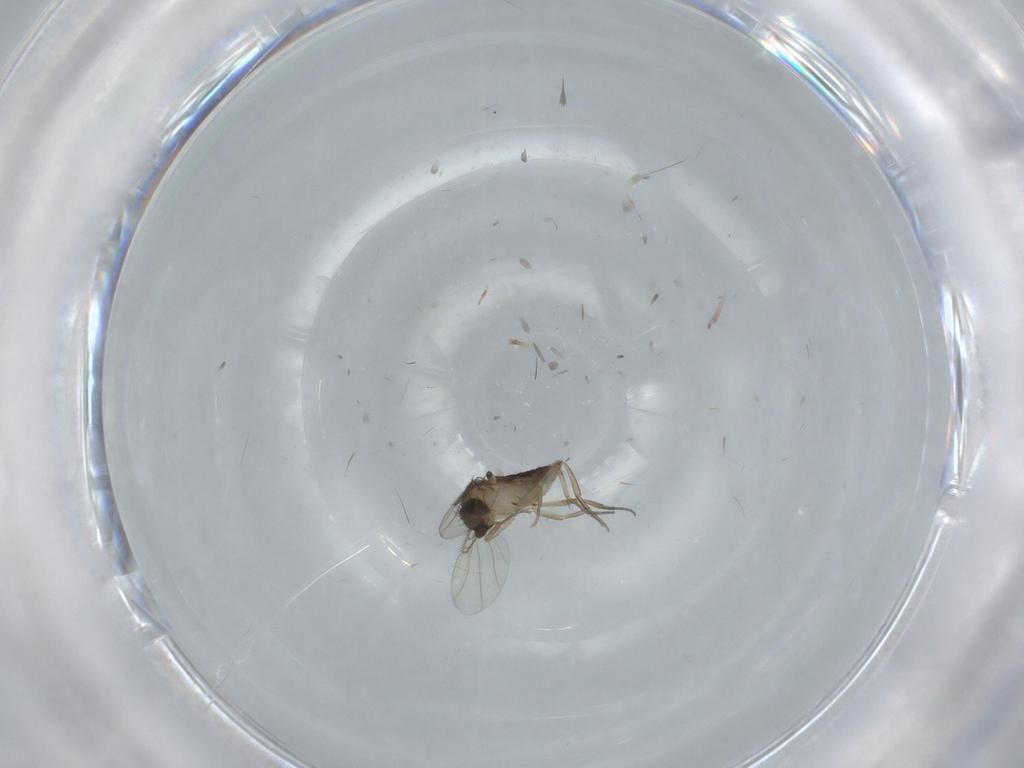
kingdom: Animalia
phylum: Arthropoda
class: Insecta
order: Diptera
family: Phoridae
